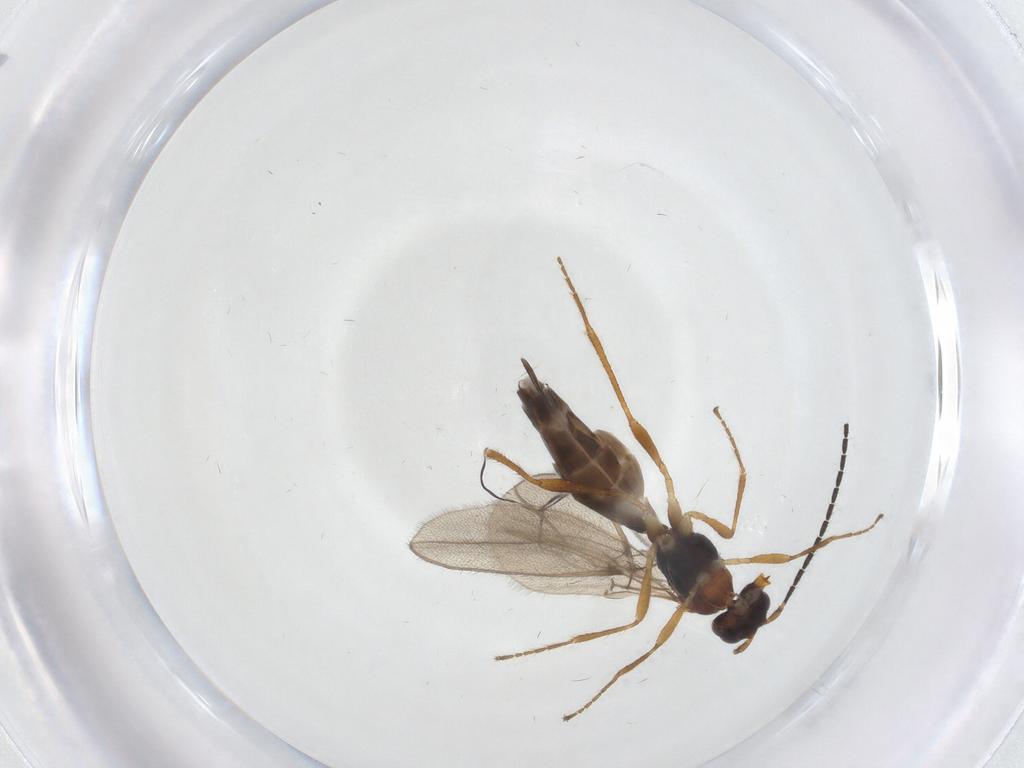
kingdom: Animalia
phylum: Arthropoda
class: Insecta
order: Hymenoptera
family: Braconidae
